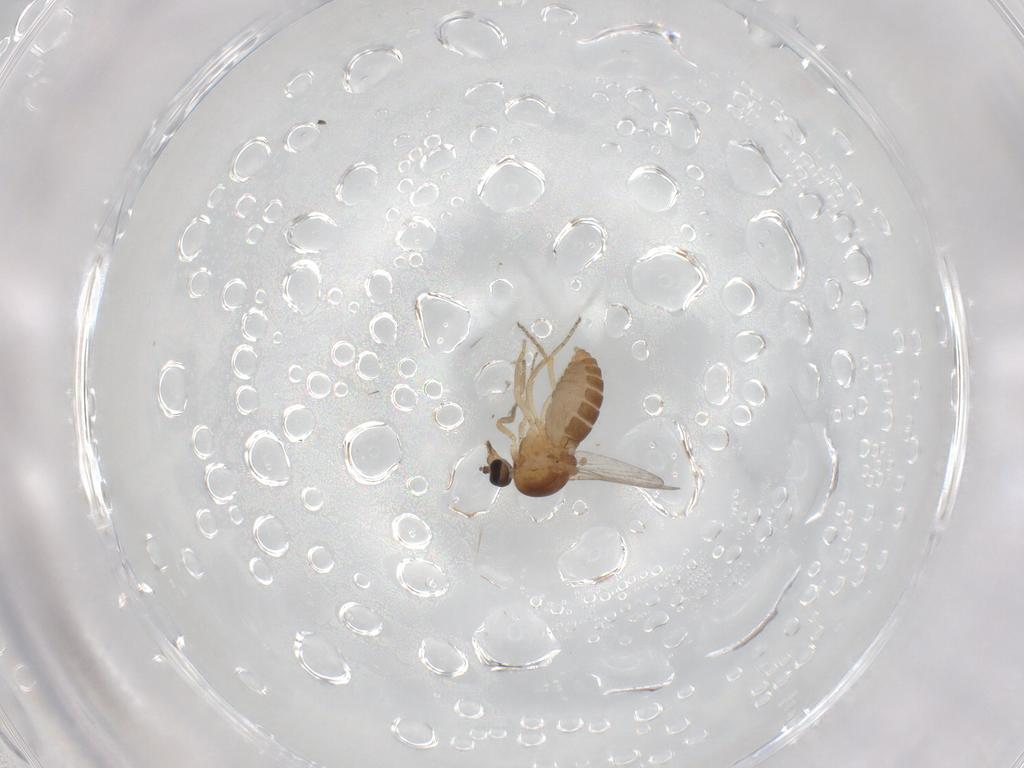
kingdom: Animalia
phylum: Arthropoda
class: Insecta
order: Diptera
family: Ceratopogonidae
